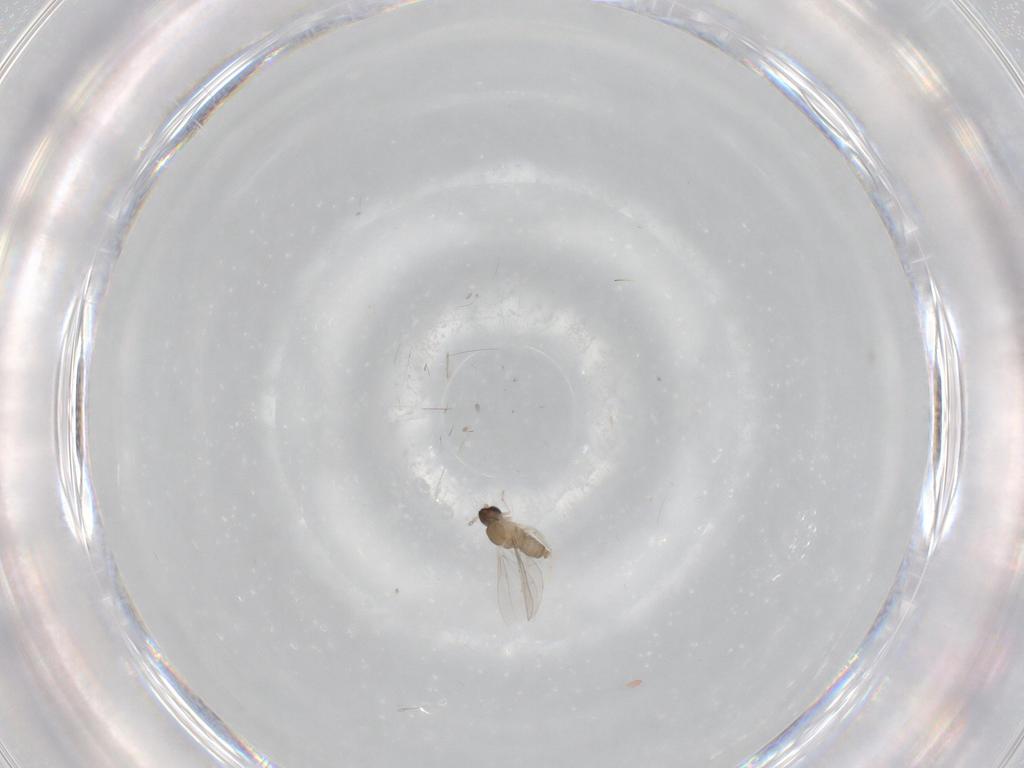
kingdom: Animalia
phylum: Arthropoda
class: Insecta
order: Diptera
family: Cecidomyiidae
